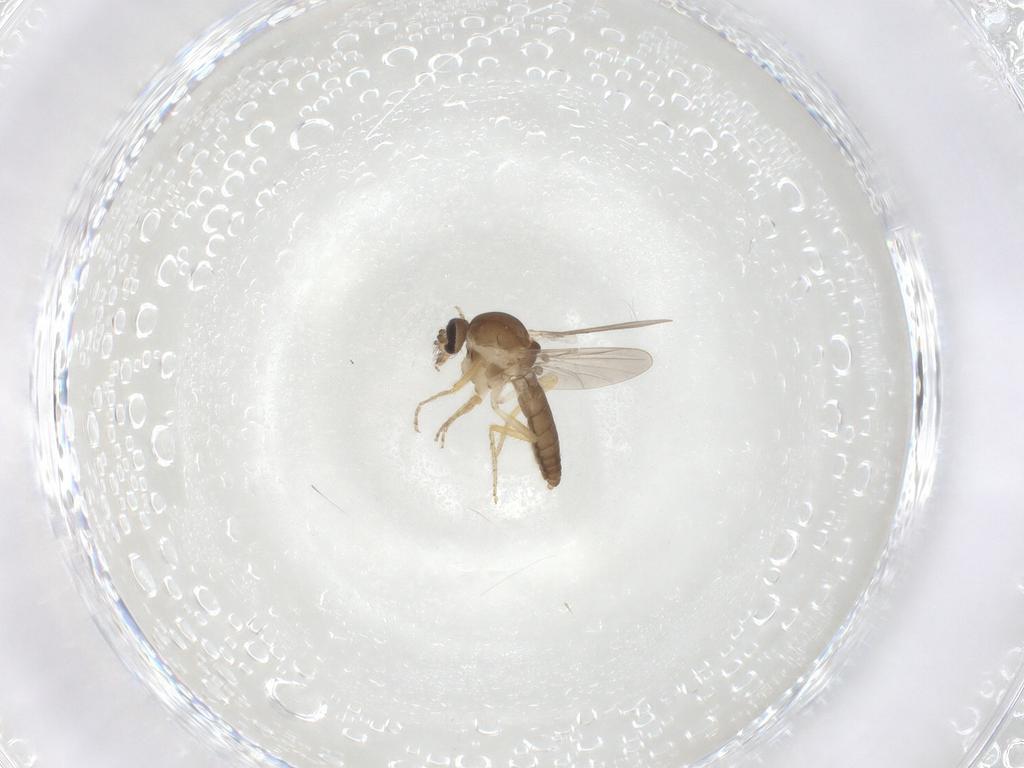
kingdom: Animalia
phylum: Arthropoda
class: Insecta
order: Diptera
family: Ceratopogonidae
